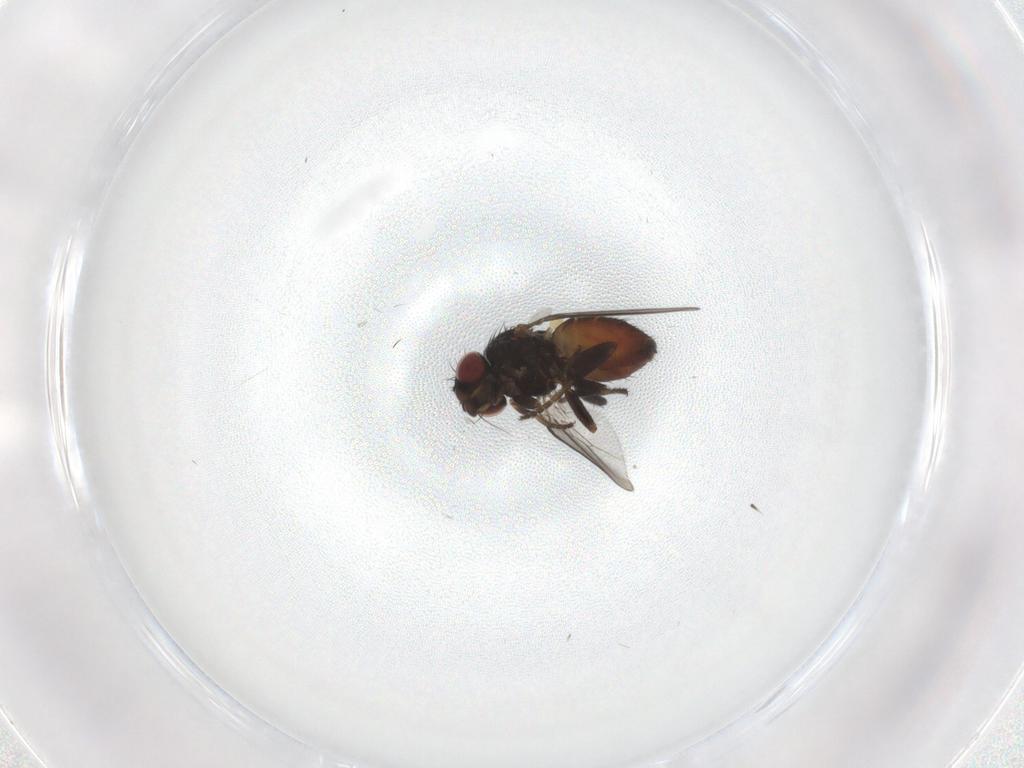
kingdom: Animalia
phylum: Arthropoda
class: Insecta
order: Diptera
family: Milichiidae
